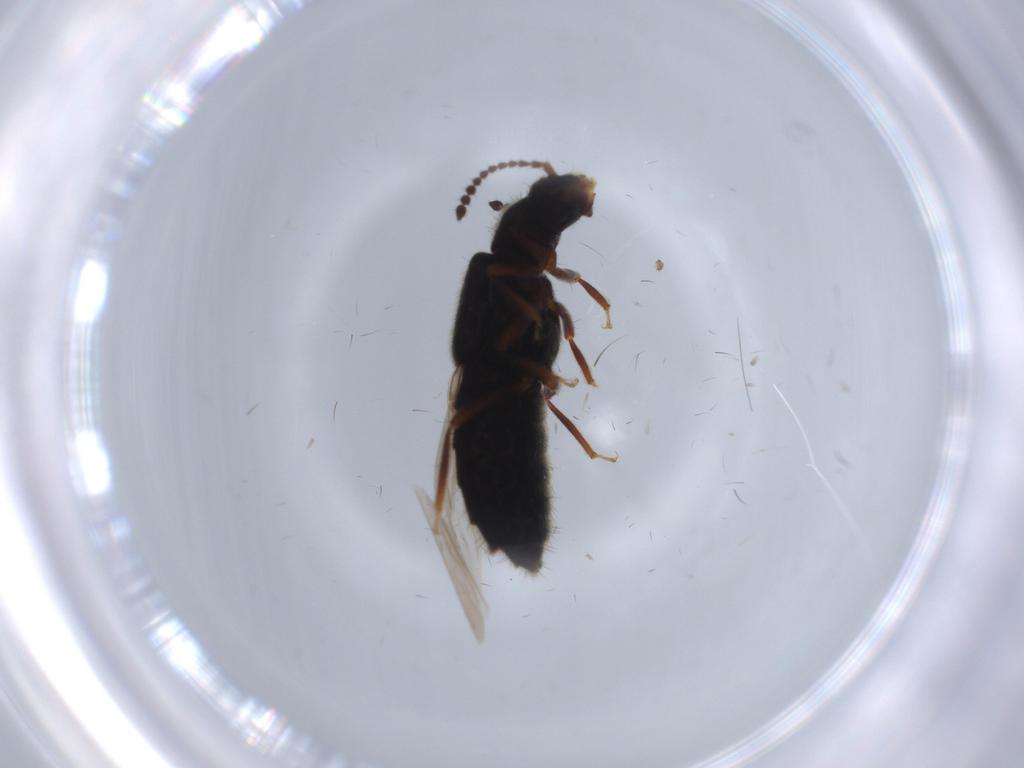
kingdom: Animalia
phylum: Arthropoda
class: Insecta
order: Coleoptera
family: Staphylinidae
